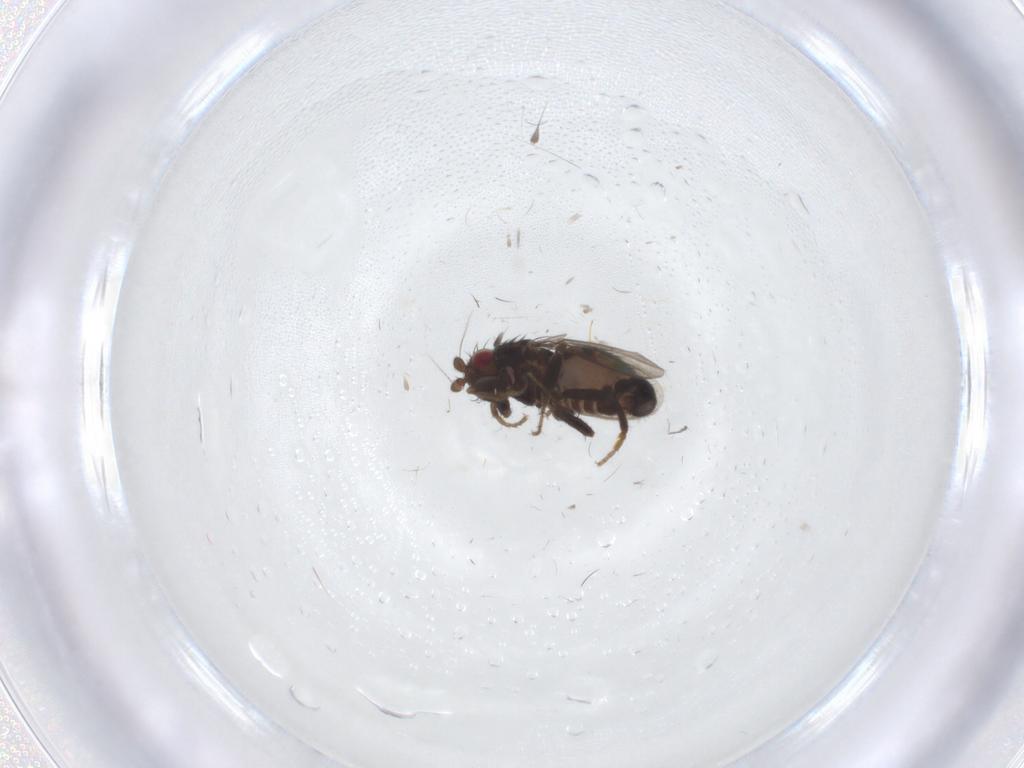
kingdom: Animalia
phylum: Arthropoda
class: Insecta
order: Diptera
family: Sphaeroceridae
